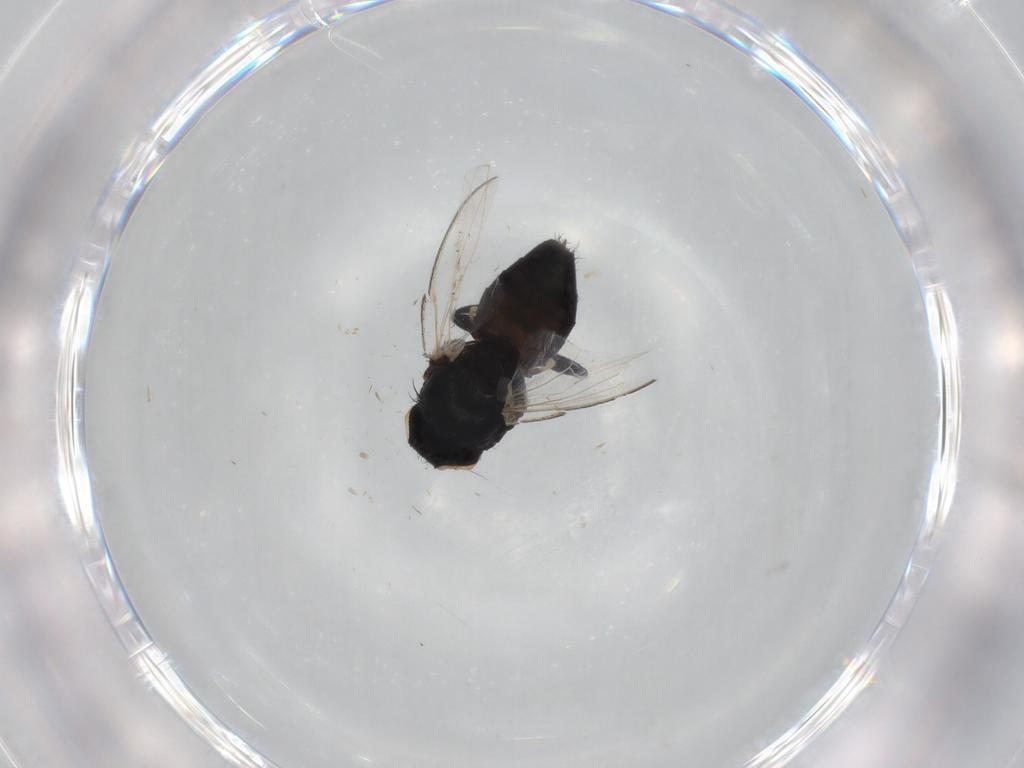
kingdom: Animalia
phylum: Arthropoda
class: Insecta
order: Diptera
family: Milichiidae
